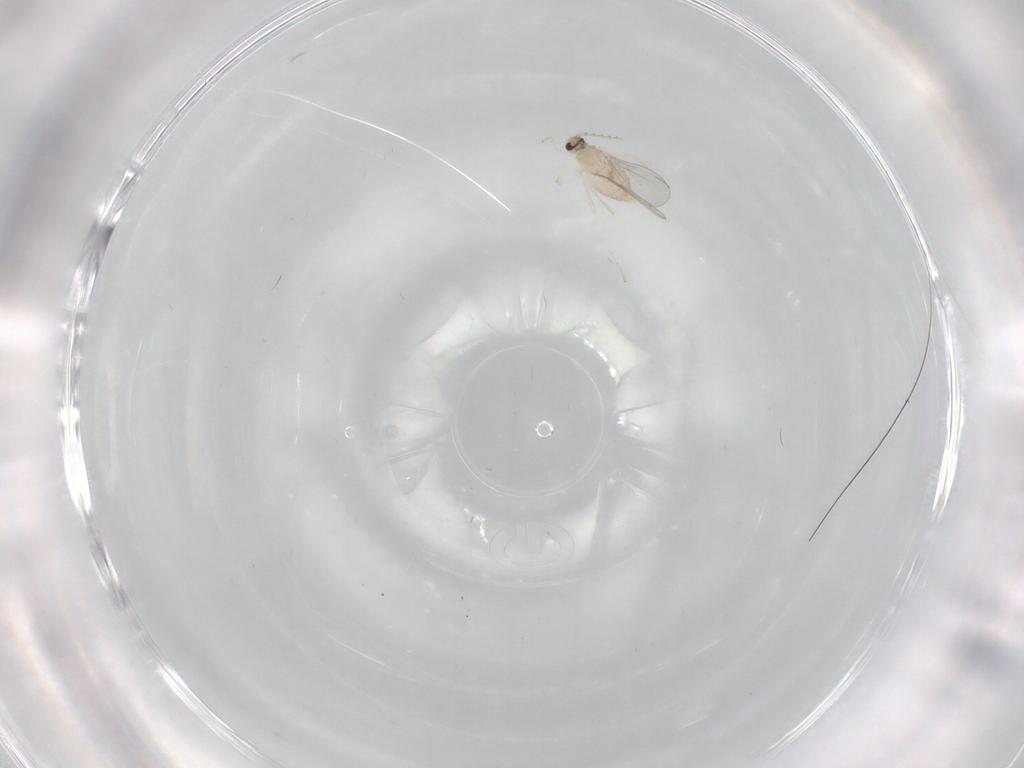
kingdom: Animalia
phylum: Arthropoda
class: Insecta
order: Diptera
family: Cecidomyiidae
